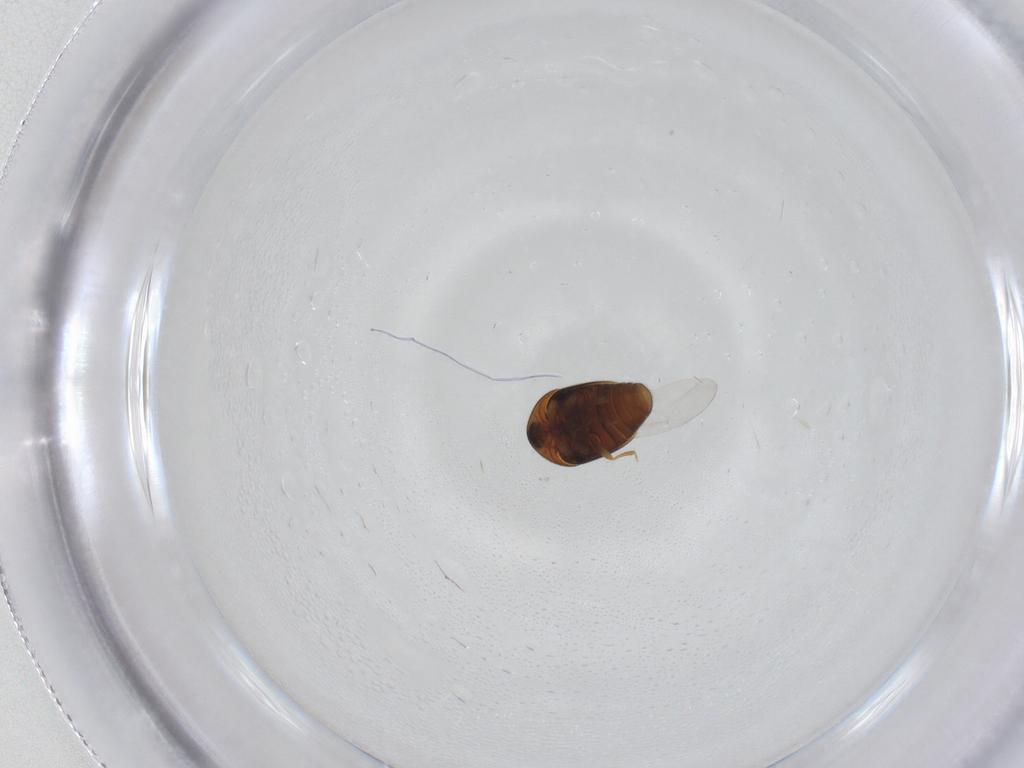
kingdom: Animalia
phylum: Arthropoda
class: Insecta
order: Coleoptera
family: Corylophidae
